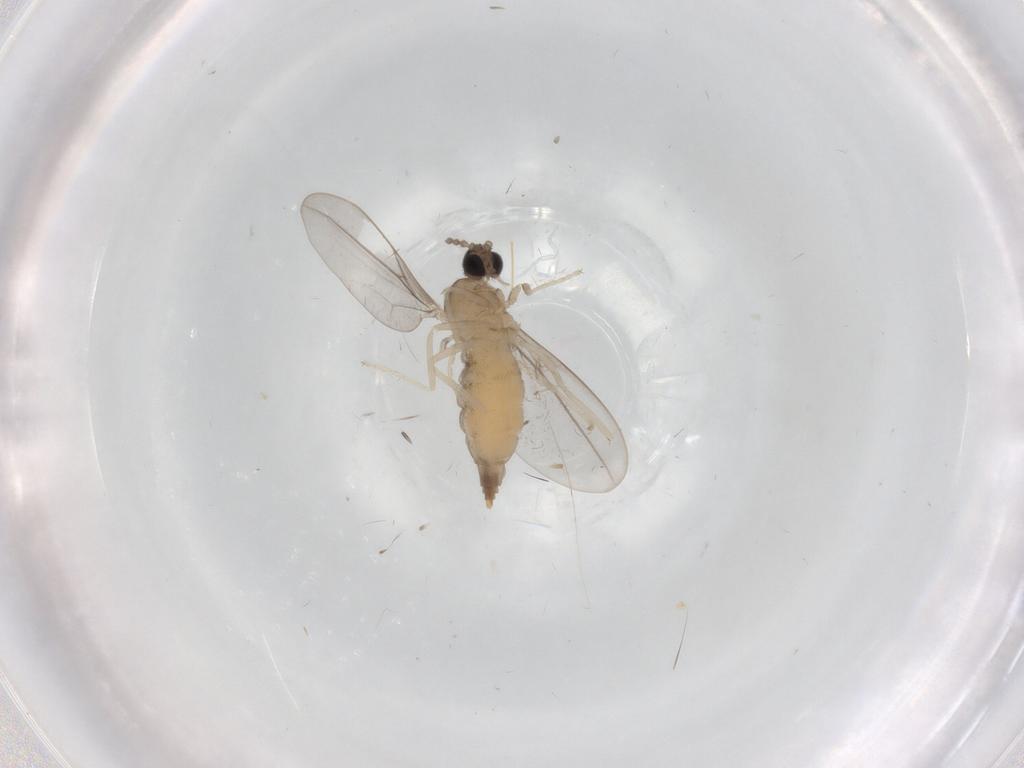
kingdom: Animalia
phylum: Arthropoda
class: Insecta
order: Diptera
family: Cecidomyiidae
